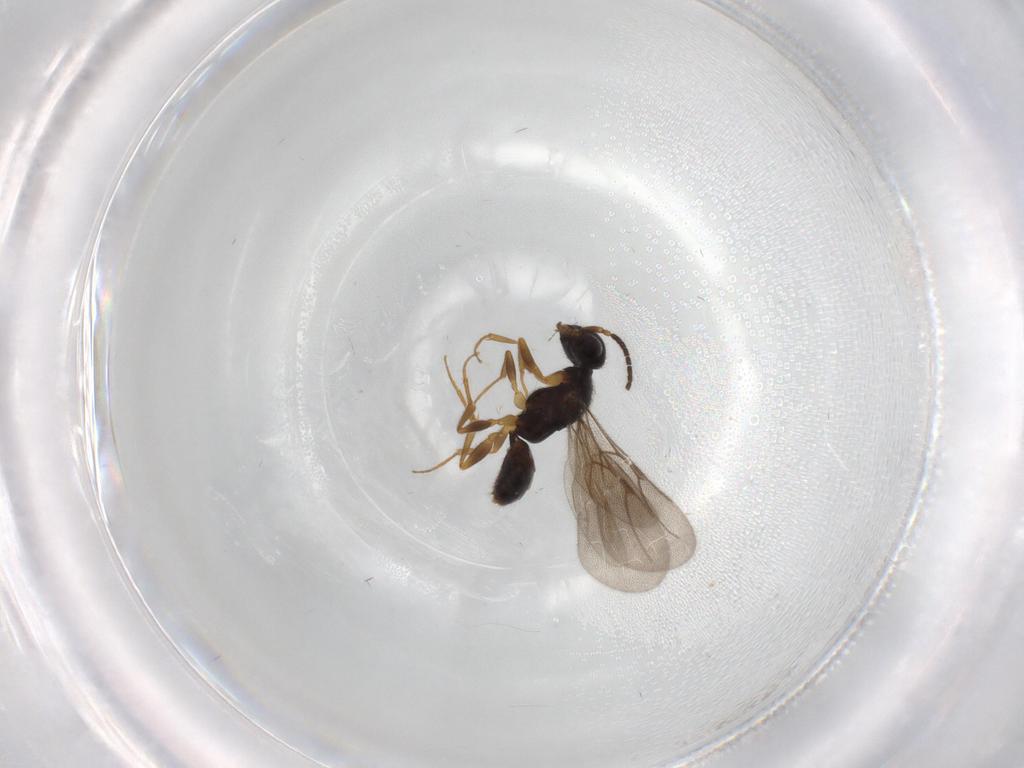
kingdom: Animalia
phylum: Arthropoda
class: Insecta
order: Hymenoptera
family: Bethylidae
